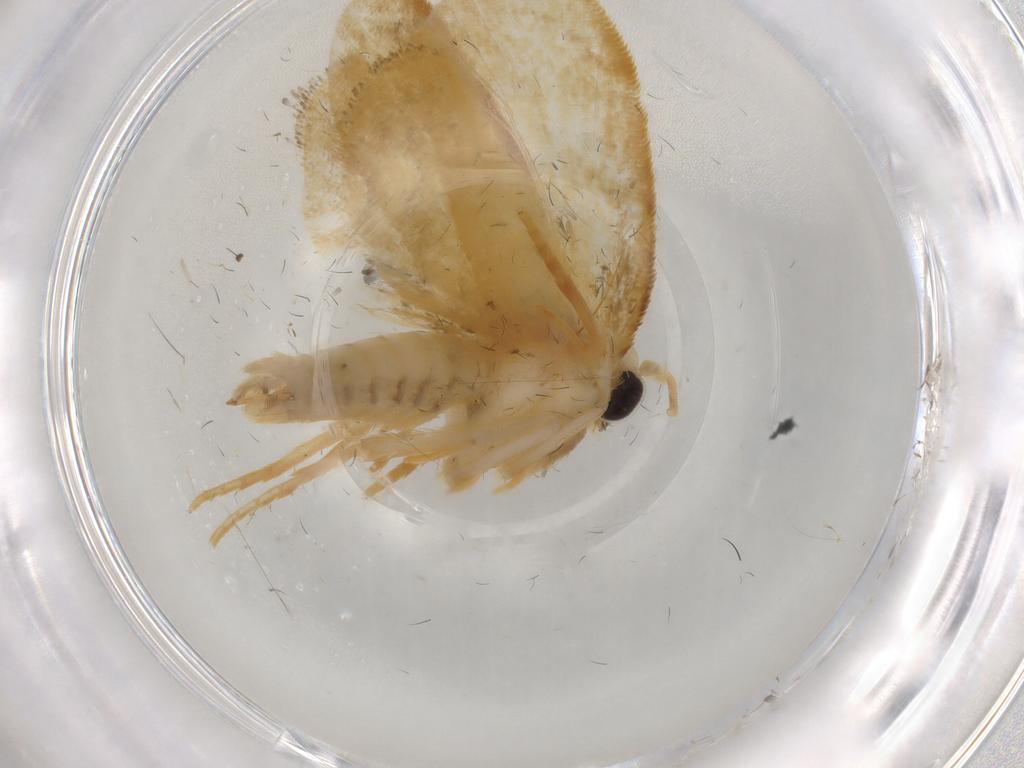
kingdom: Animalia
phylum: Arthropoda
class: Insecta
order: Lepidoptera
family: Psychidae
